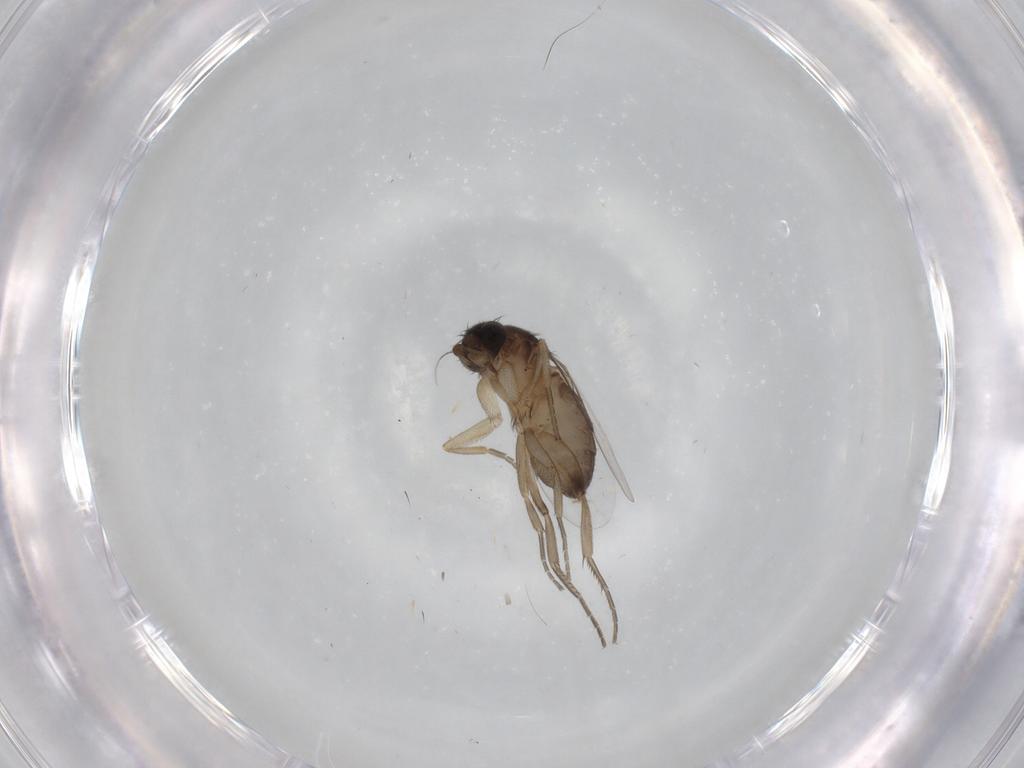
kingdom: Animalia
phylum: Arthropoda
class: Insecta
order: Diptera
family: Phoridae
